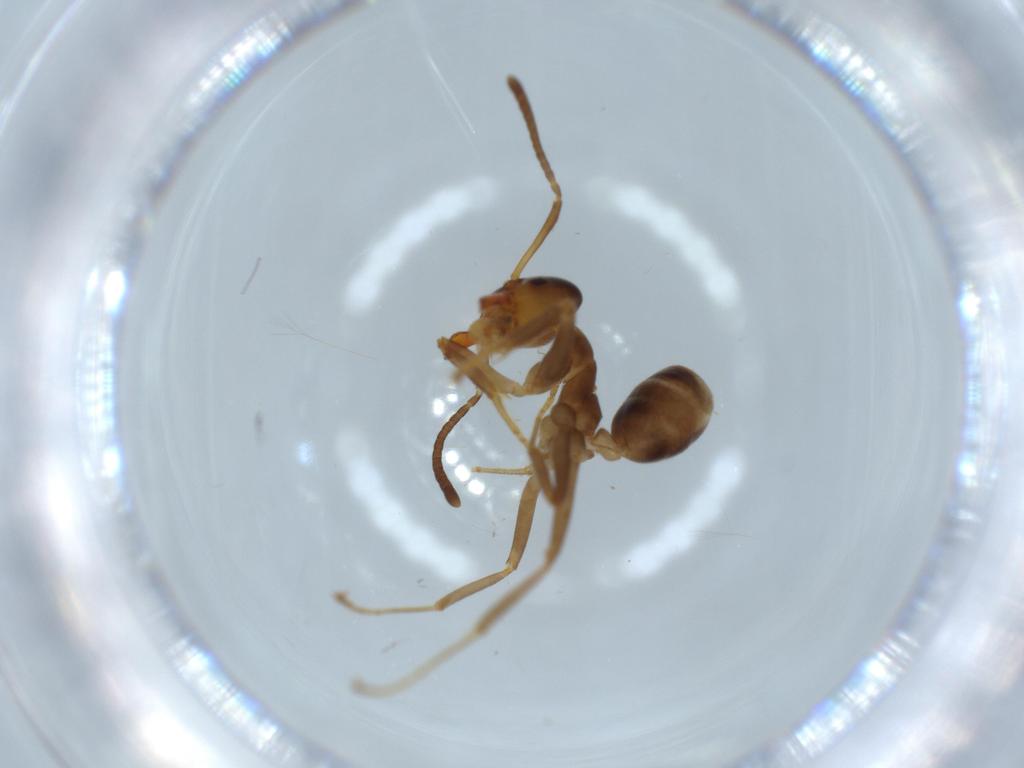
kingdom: Animalia
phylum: Arthropoda
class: Insecta
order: Hymenoptera
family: Formicidae
